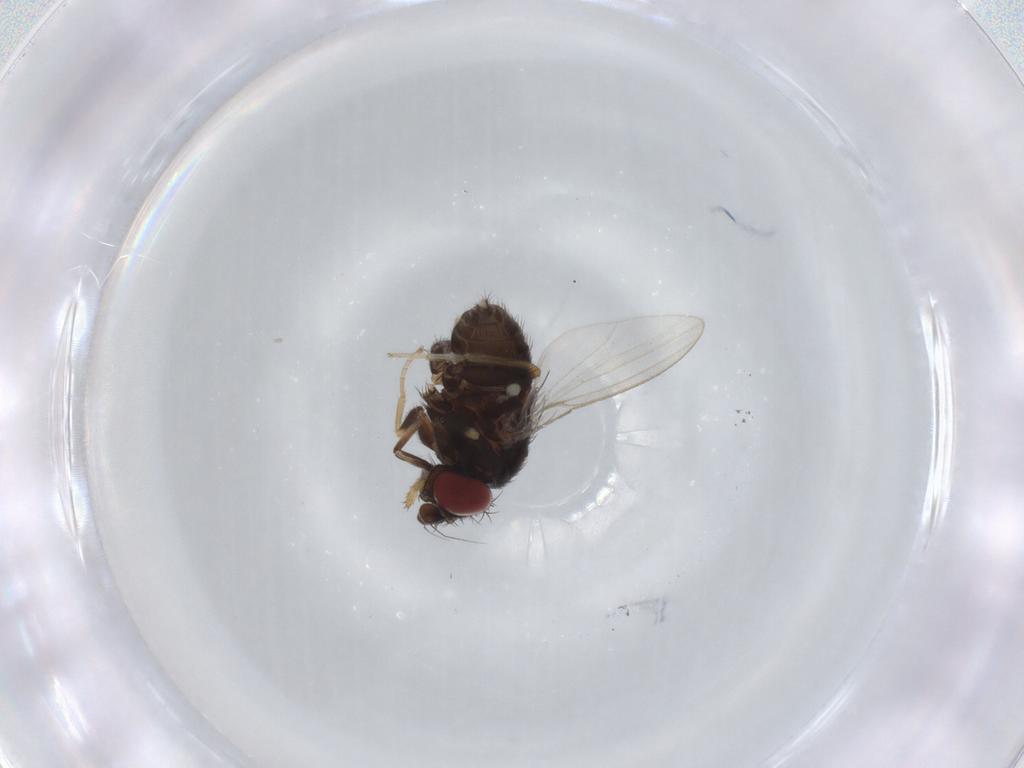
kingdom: Animalia
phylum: Arthropoda
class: Insecta
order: Diptera
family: Milichiidae
